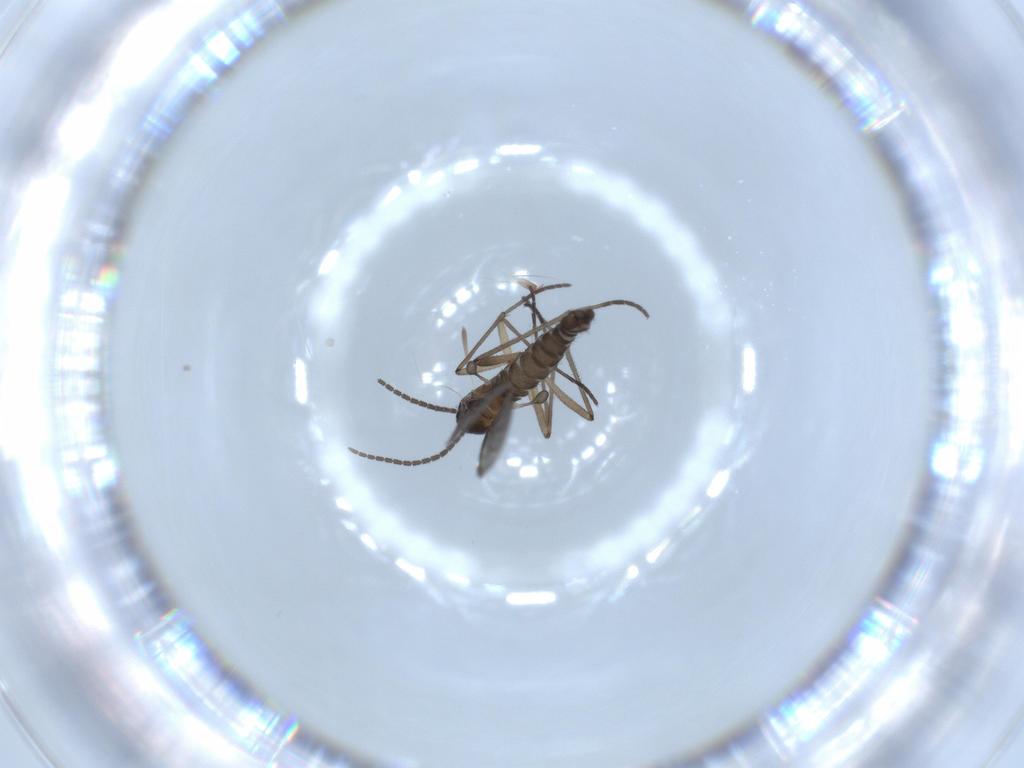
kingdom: Animalia
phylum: Arthropoda
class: Insecta
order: Diptera
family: Sciaridae
